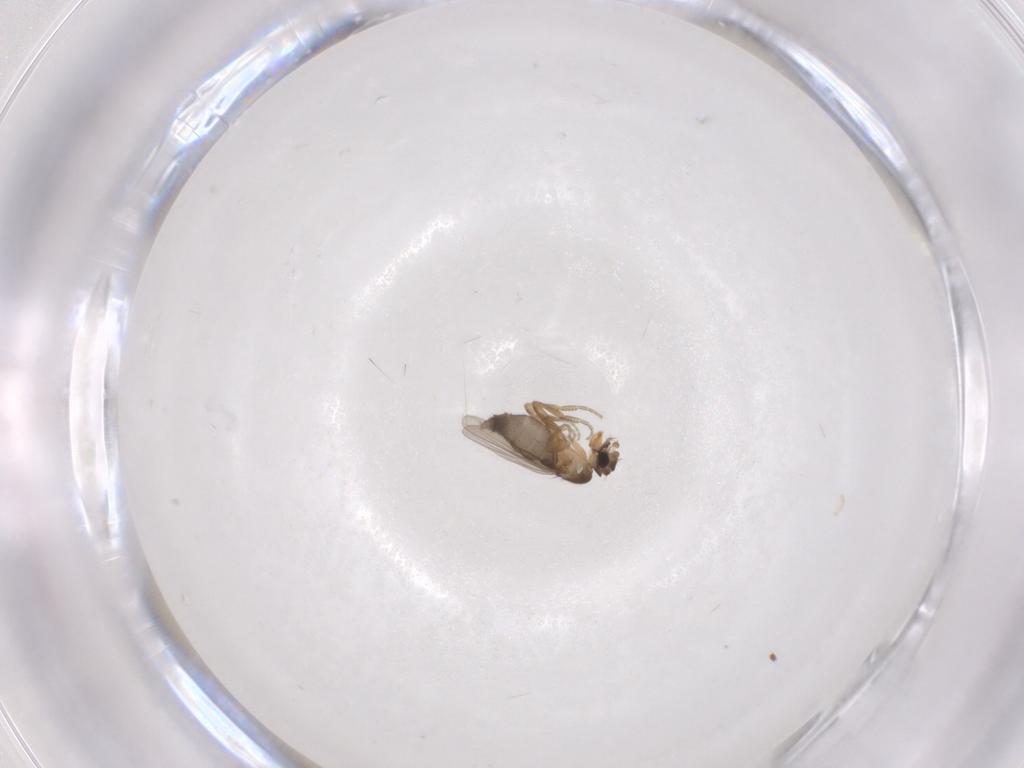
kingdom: Animalia
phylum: Arthropoda
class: Insecta
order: Diptera
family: Phoridae
